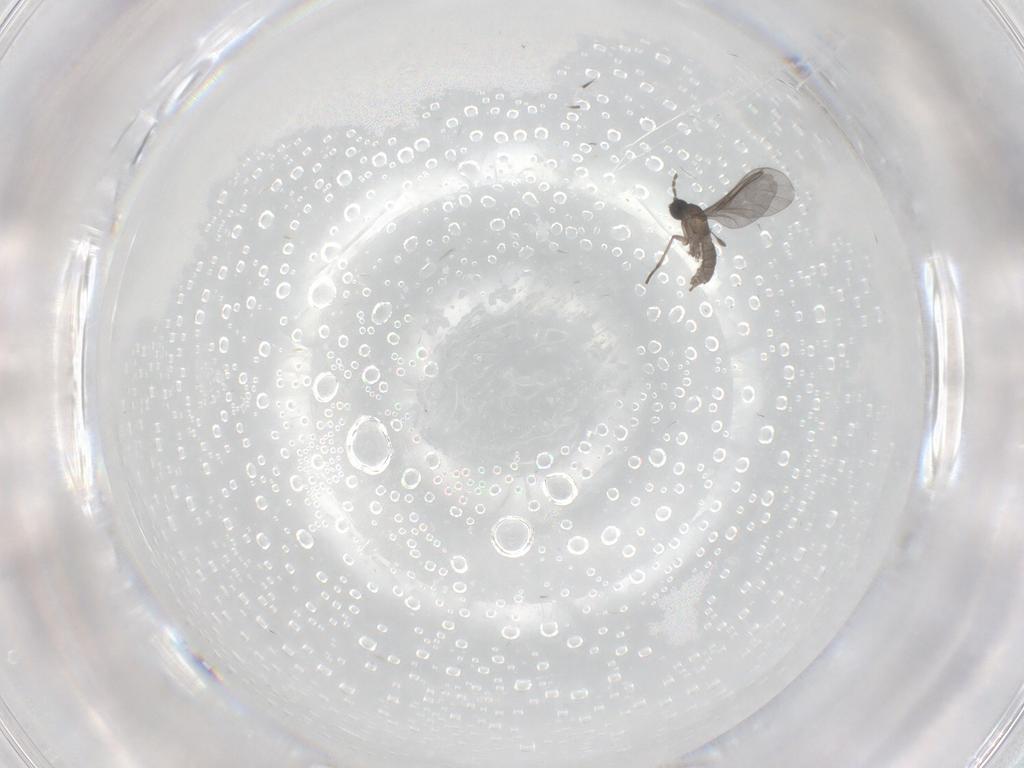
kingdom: Animalia
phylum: Arthropoda
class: Insecta
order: Diptera
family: Sciaridae
